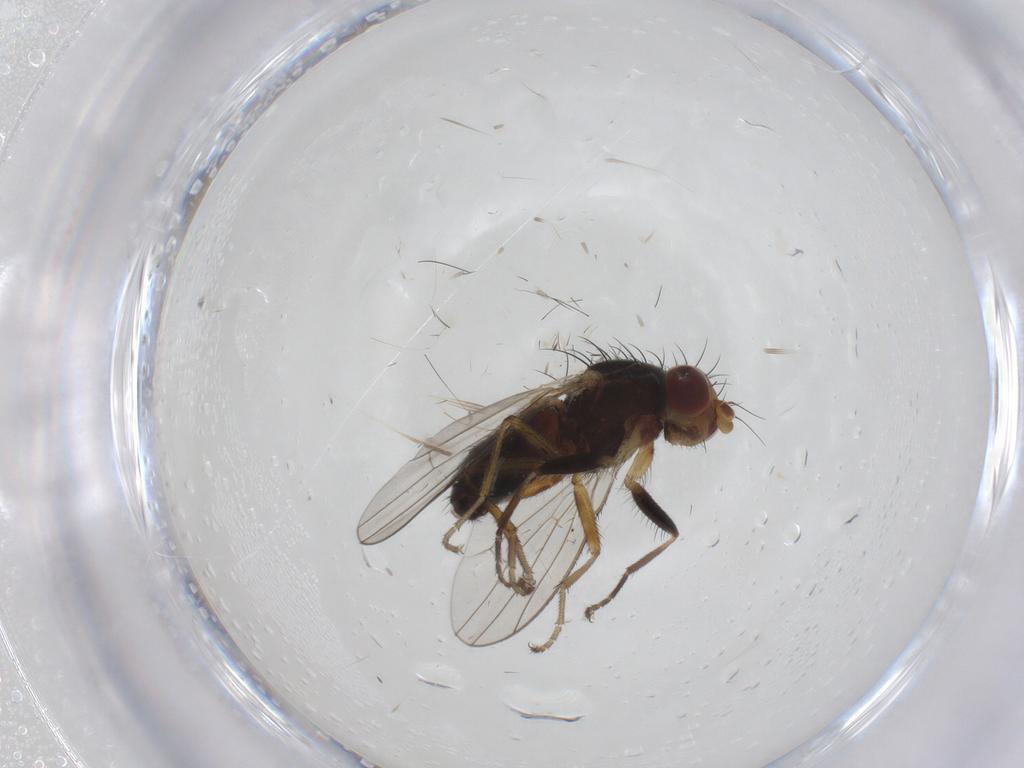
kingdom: Animalia
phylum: Arthropoda
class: Insecta
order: Diptera
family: Heleomyzidae
